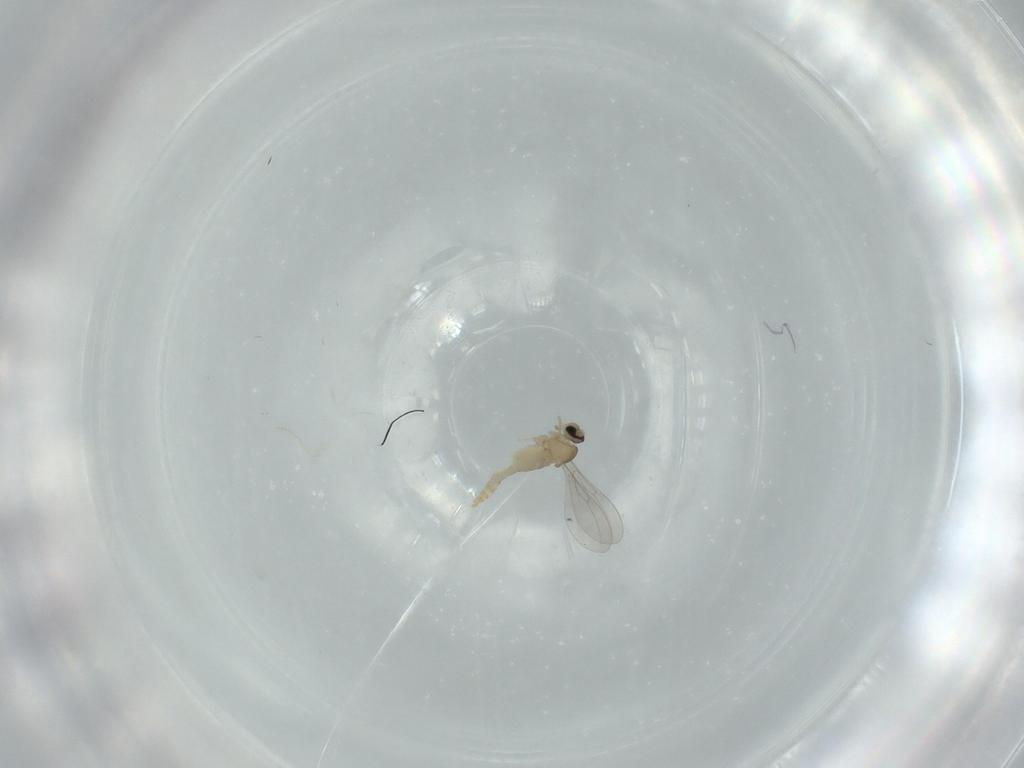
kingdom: Animalia
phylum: Arthropoda
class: Insecta
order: Diptera
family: Cecidomyiidae
